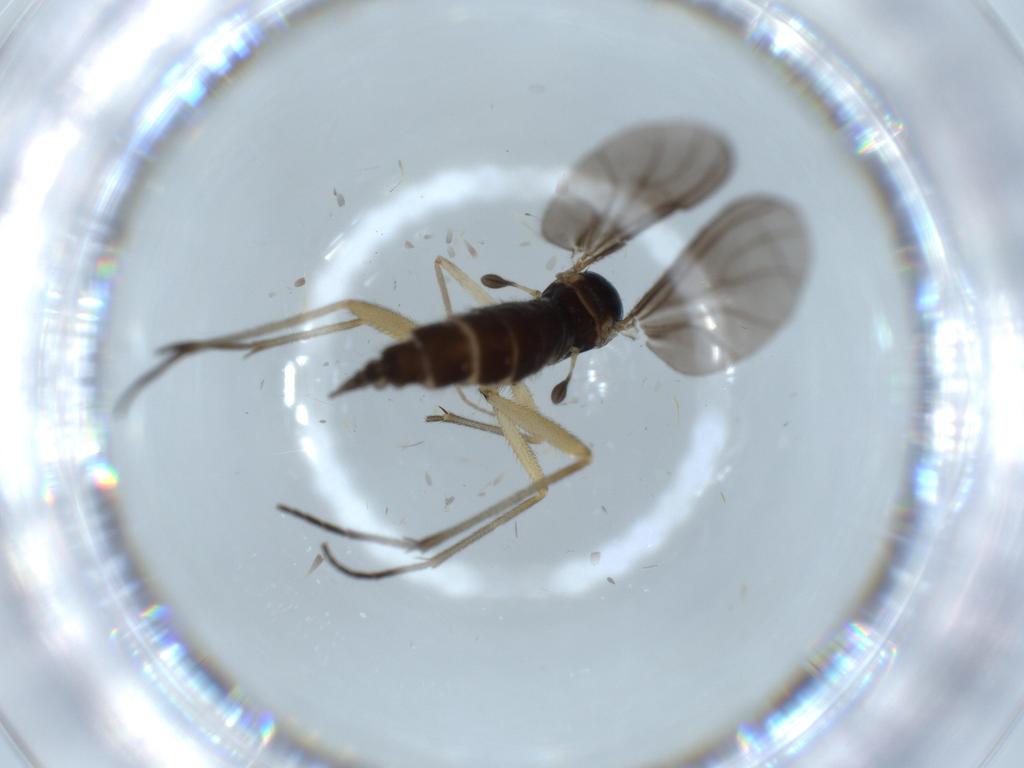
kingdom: Animalia
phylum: Arthropoda
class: Insecta
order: Diptera
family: Sciaridae
